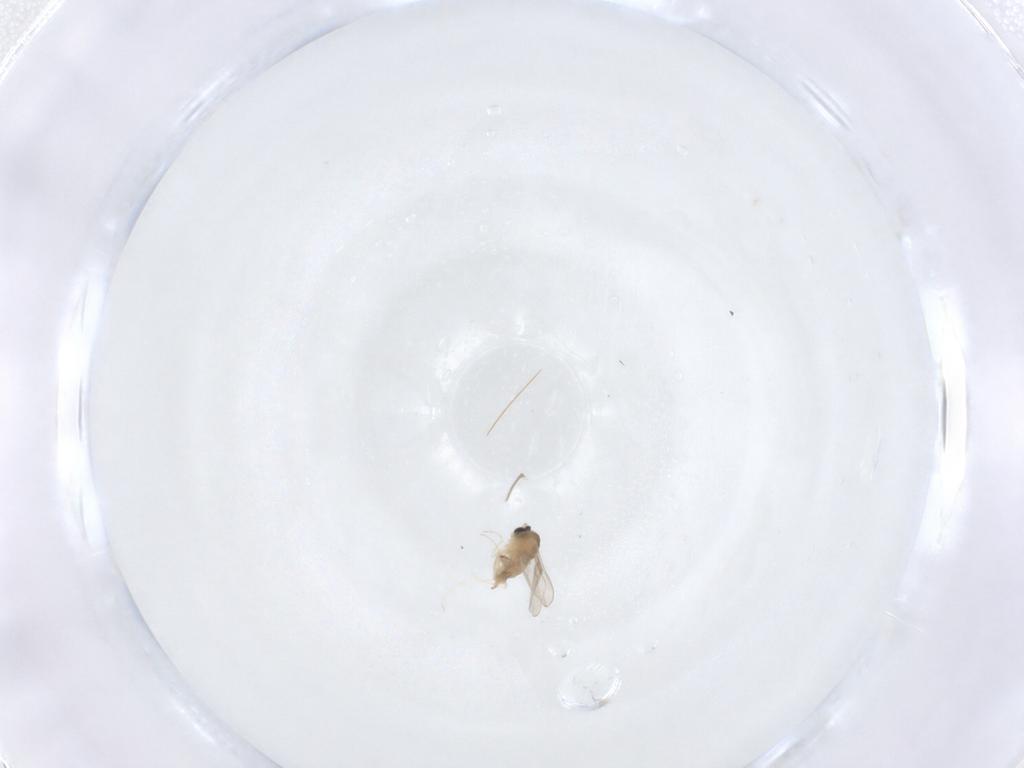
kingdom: Animalia
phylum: Arthropoda
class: Insecta
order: Diptera
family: Cecidomyiidae
